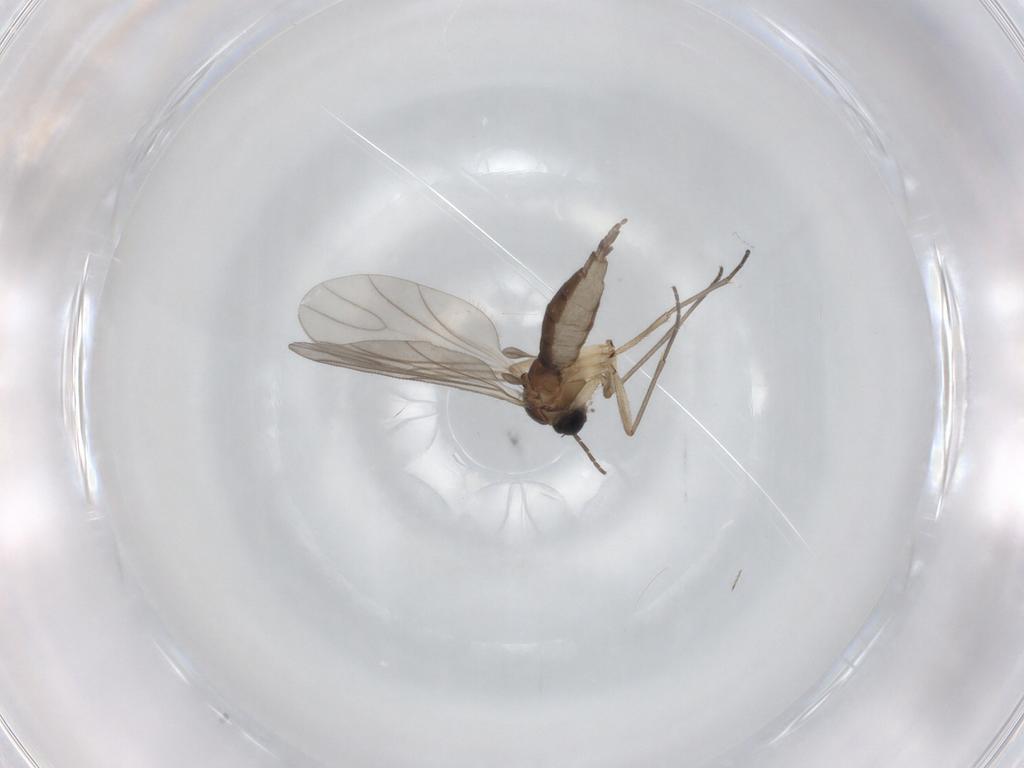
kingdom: Animalia
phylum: Arthropoda
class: Insecta
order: Diptera
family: Sciaridae
